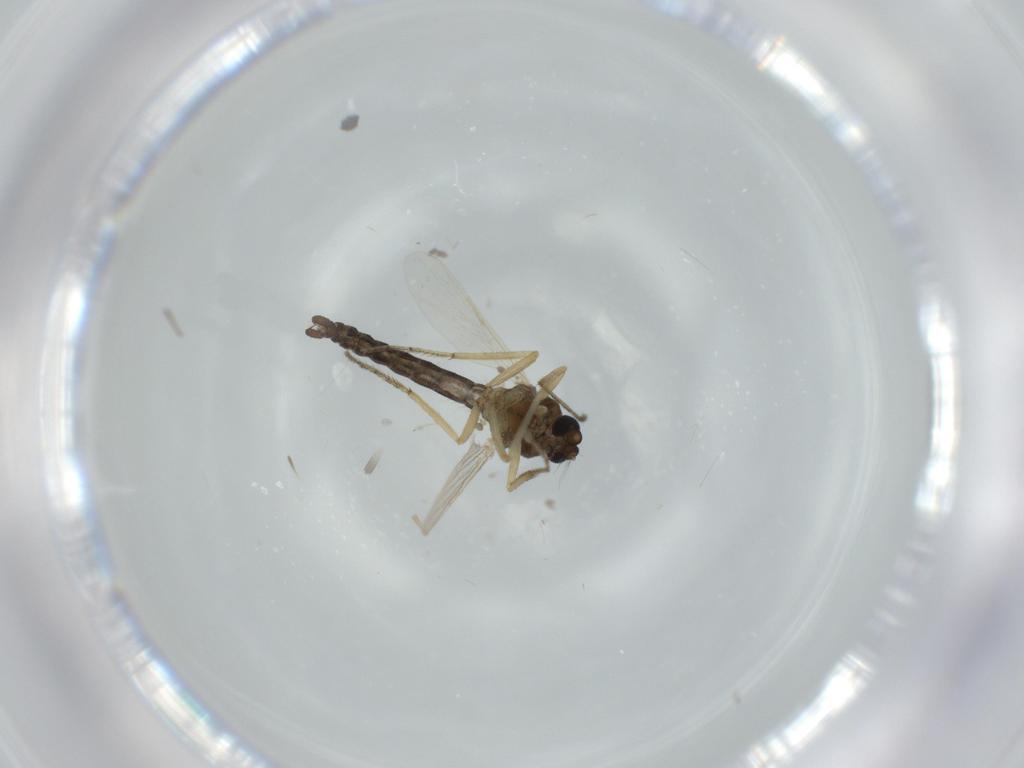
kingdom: Animalia
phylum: Arthropoda
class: Insecta
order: Diptera
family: Ceratopogonidae
